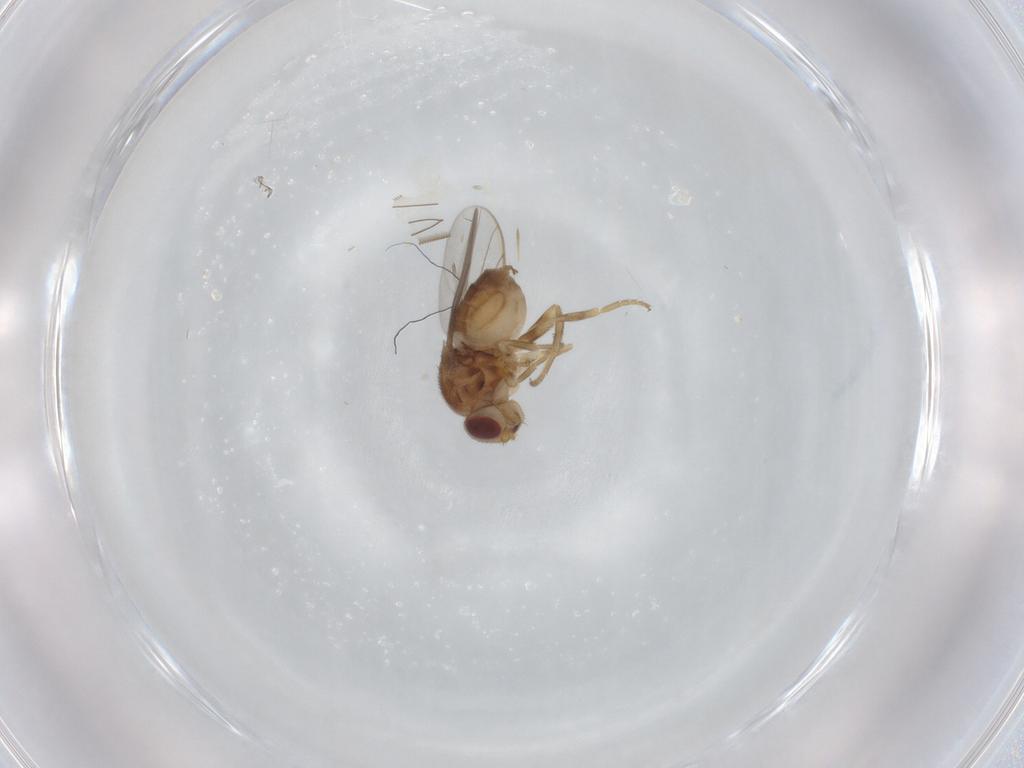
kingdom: Animalia
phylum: Arthropoda
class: Insecta
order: Diptera
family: Chloropidae
